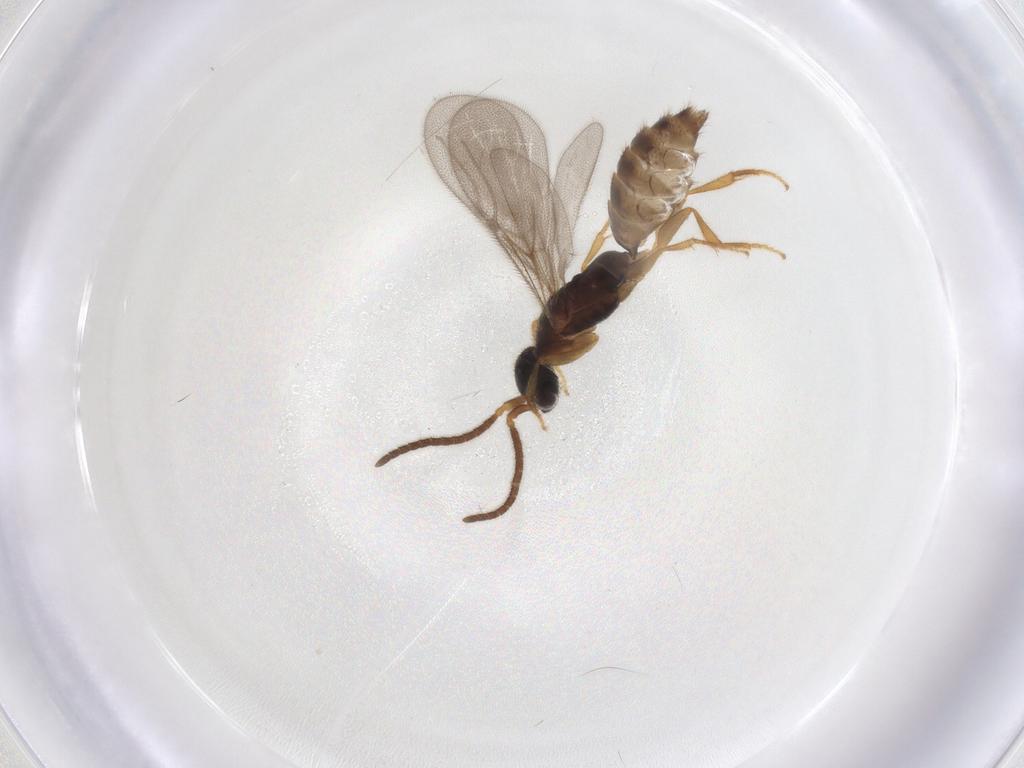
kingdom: Animalia
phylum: Arthropoda
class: Insecta
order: Hymenoptera
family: Bethylidae
